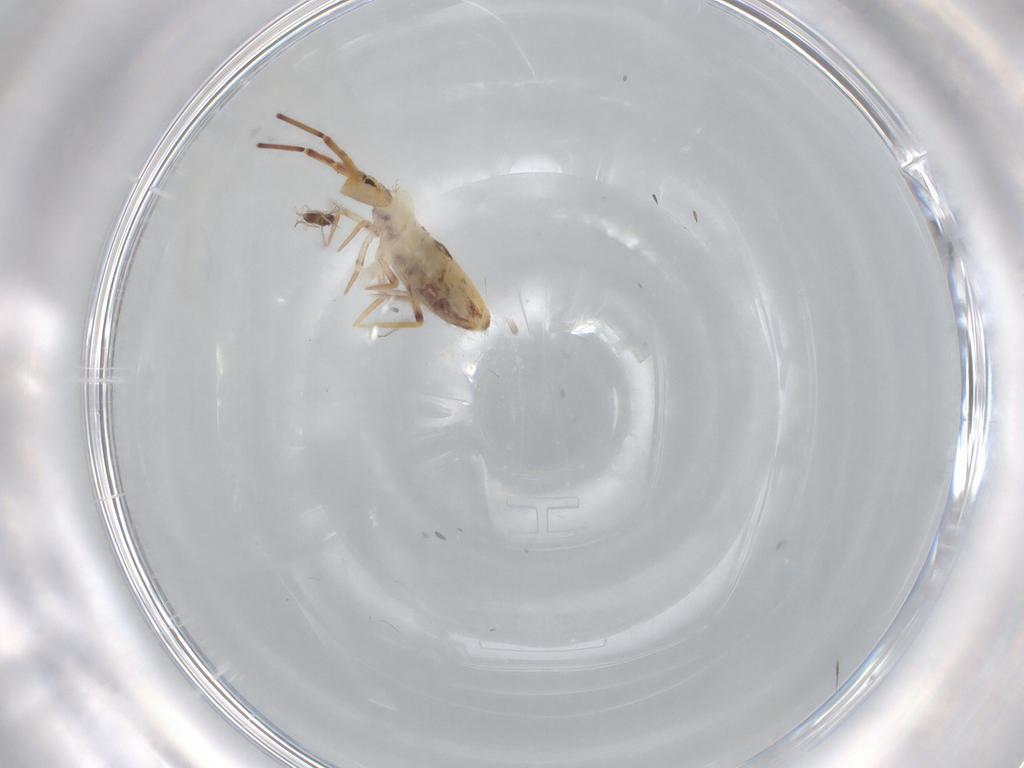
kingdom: Animalia
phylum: Arthropoda
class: Collembola
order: Poduromorpha
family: Hypogastruridae
